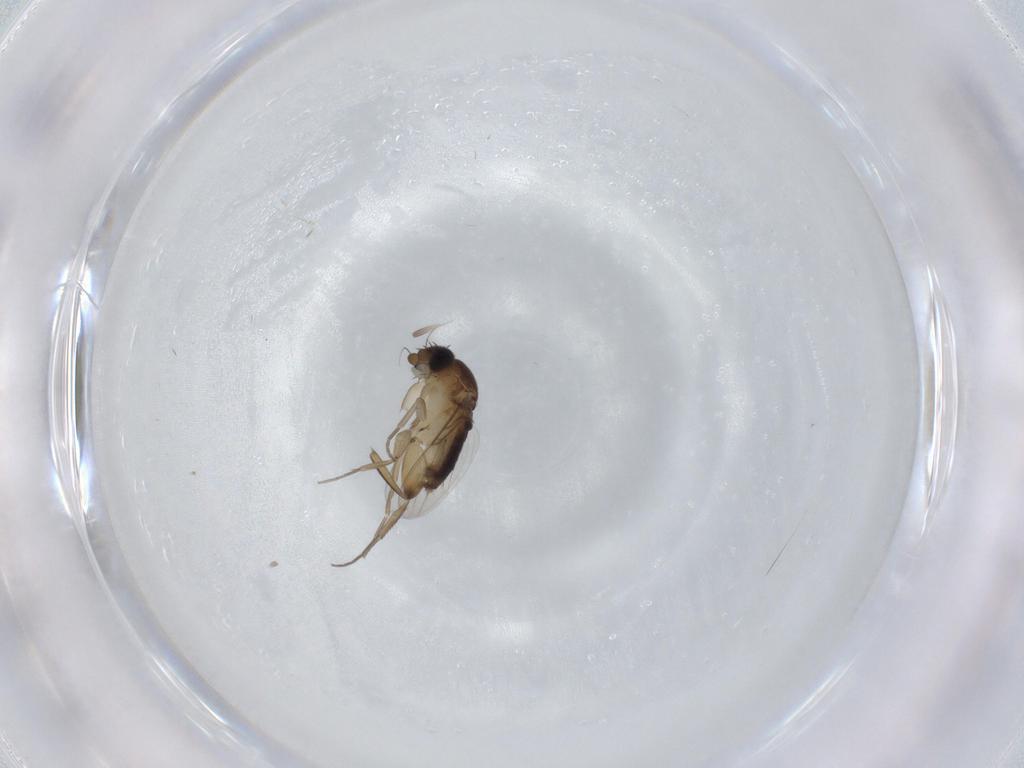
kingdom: Animalia
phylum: Arthropoda
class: Insecta
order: Diptera
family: Phoridae
